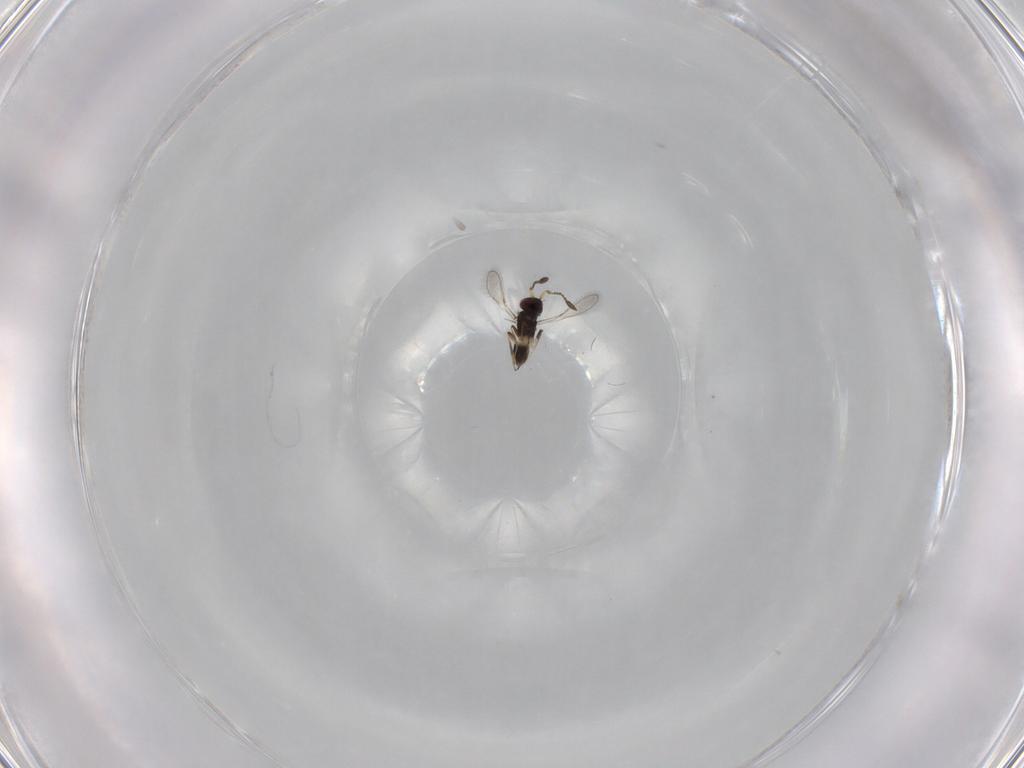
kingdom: Animalia
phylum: Arthropoda
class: Insecta
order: Hymenoptera
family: Mymaridae
